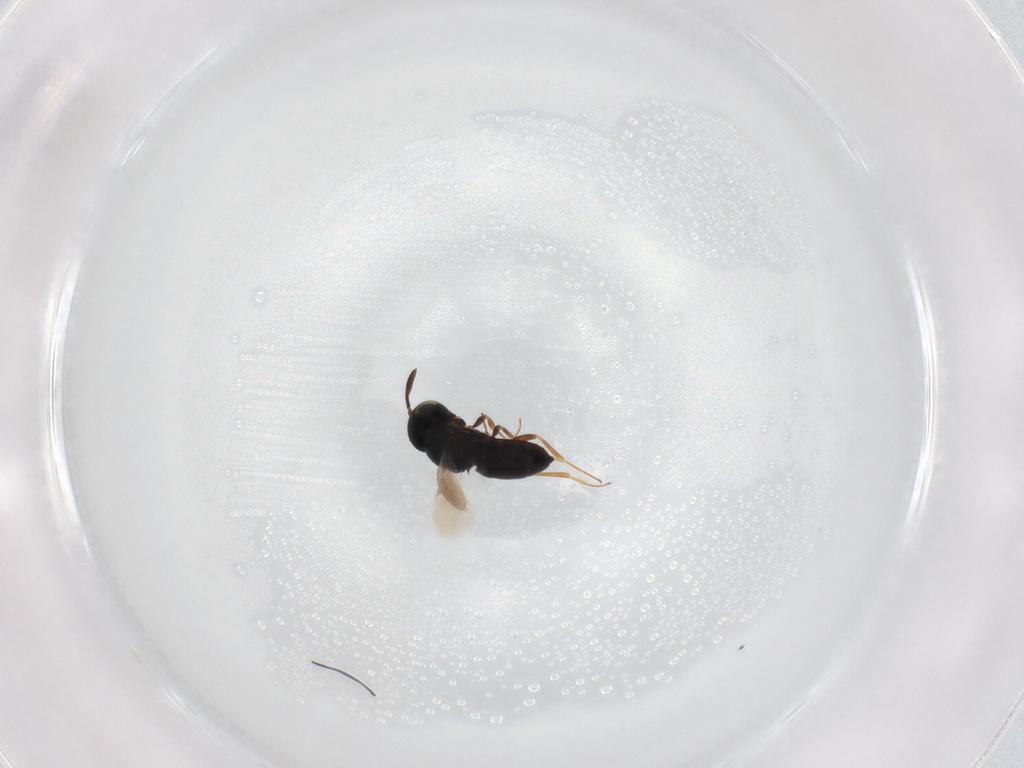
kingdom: Animalia
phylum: Arthropoda
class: Insecta
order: Hymenoptera
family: Scelionidae
